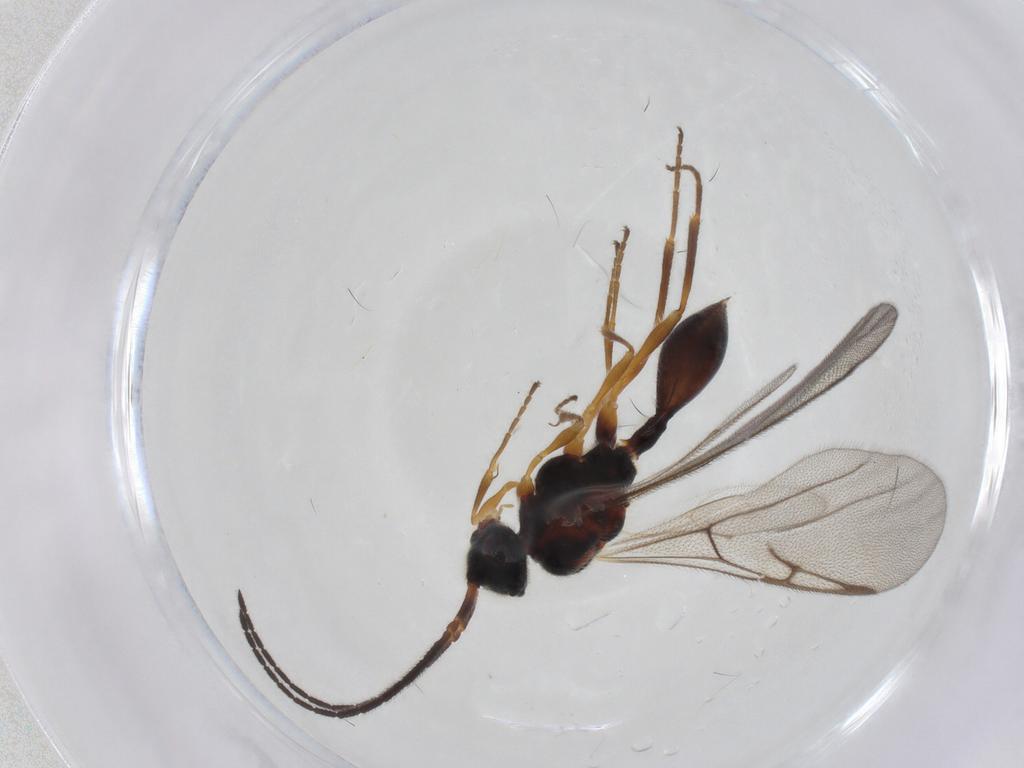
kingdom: Animalia
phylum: Arthropoda
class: Insecta
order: Hymenoptera
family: Diapriidae
